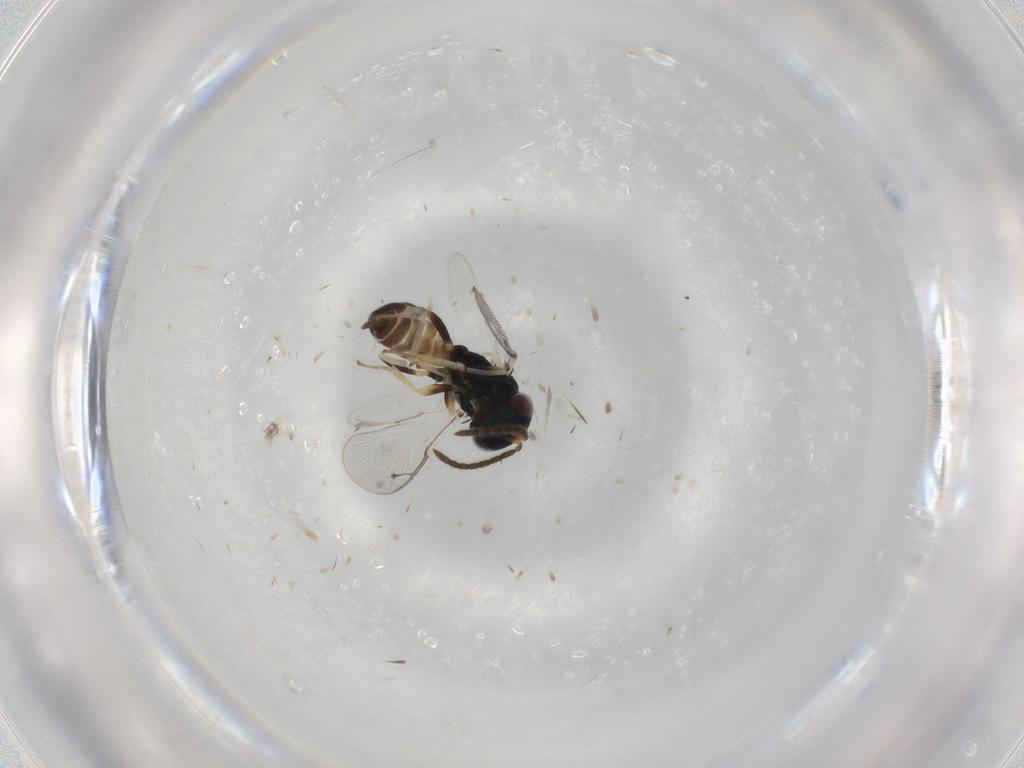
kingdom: Animalia
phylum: Arthropoda
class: Insecta
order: Hymenoptera
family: Pteromalidae
